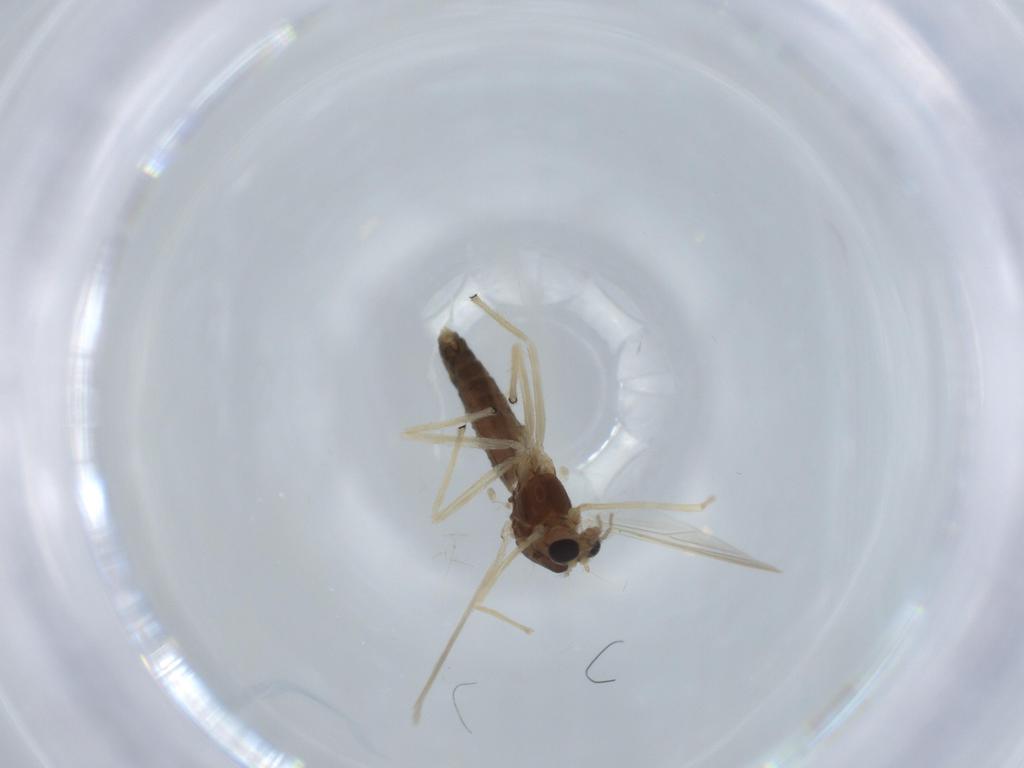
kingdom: Animalia
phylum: Arthropoda
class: Insecta
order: Diptera
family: Chironomidae
